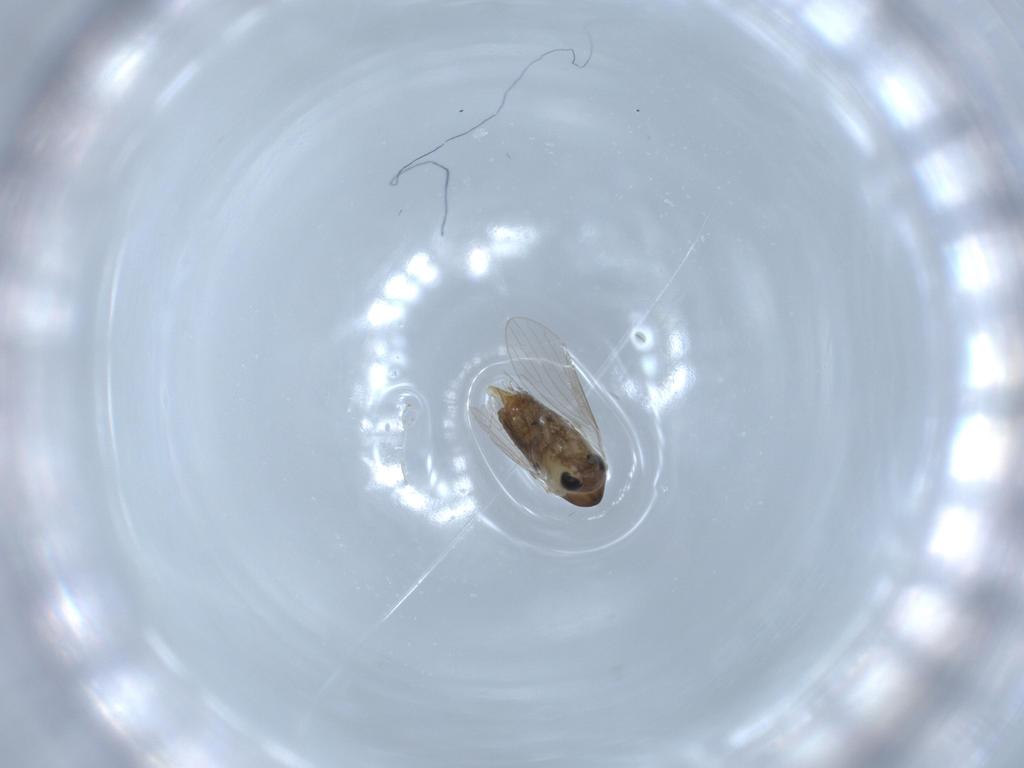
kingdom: Animalia
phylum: Arthropoda
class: Insecta
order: Diptera
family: Psychodidae
